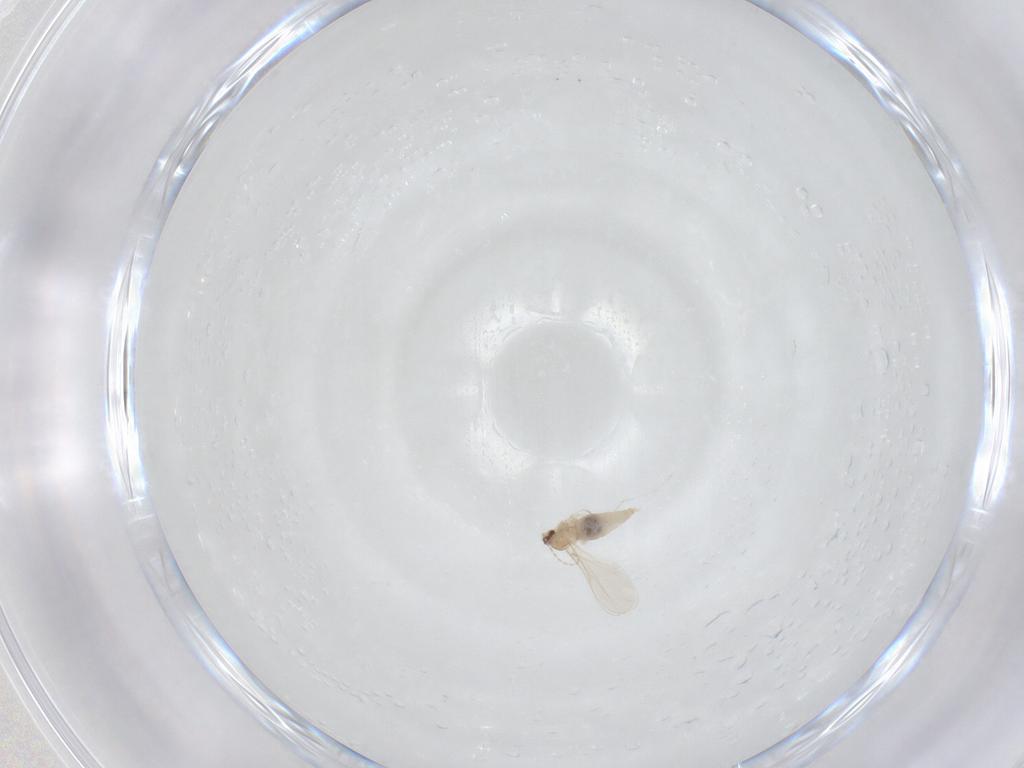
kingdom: Animalia
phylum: Arthropoda
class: Insecta
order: Diptera
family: Cecidomyiidae
